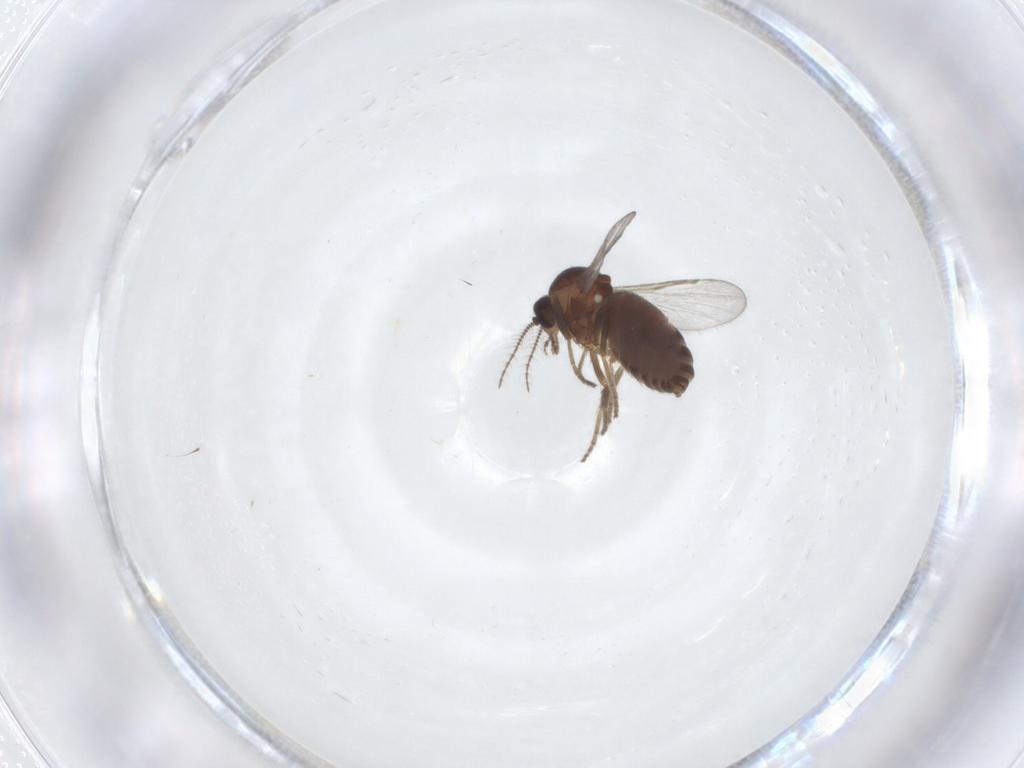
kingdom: Animalia
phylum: Arthropoda
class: Insecta
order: Diptera
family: Ceratopogonidae
